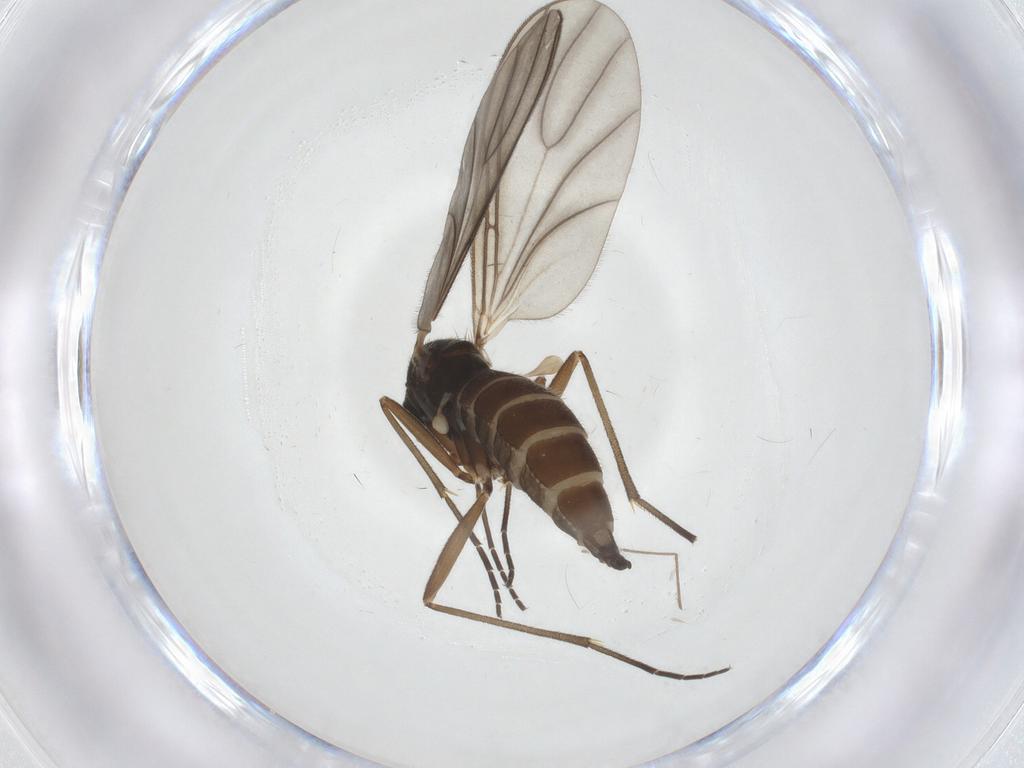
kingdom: Animalia
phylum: Arthropoda
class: Insecta
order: Diptera
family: Sciaridae
